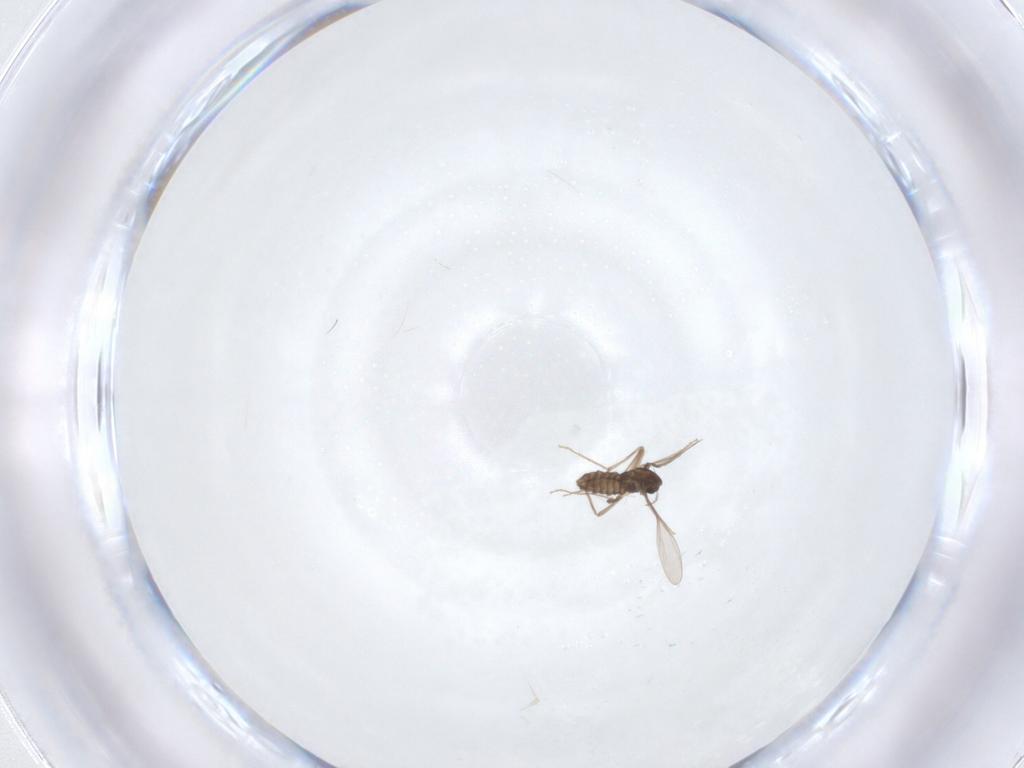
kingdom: Animalia
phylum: Arthropoda
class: Insecta
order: Diptera
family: Chironomidae
